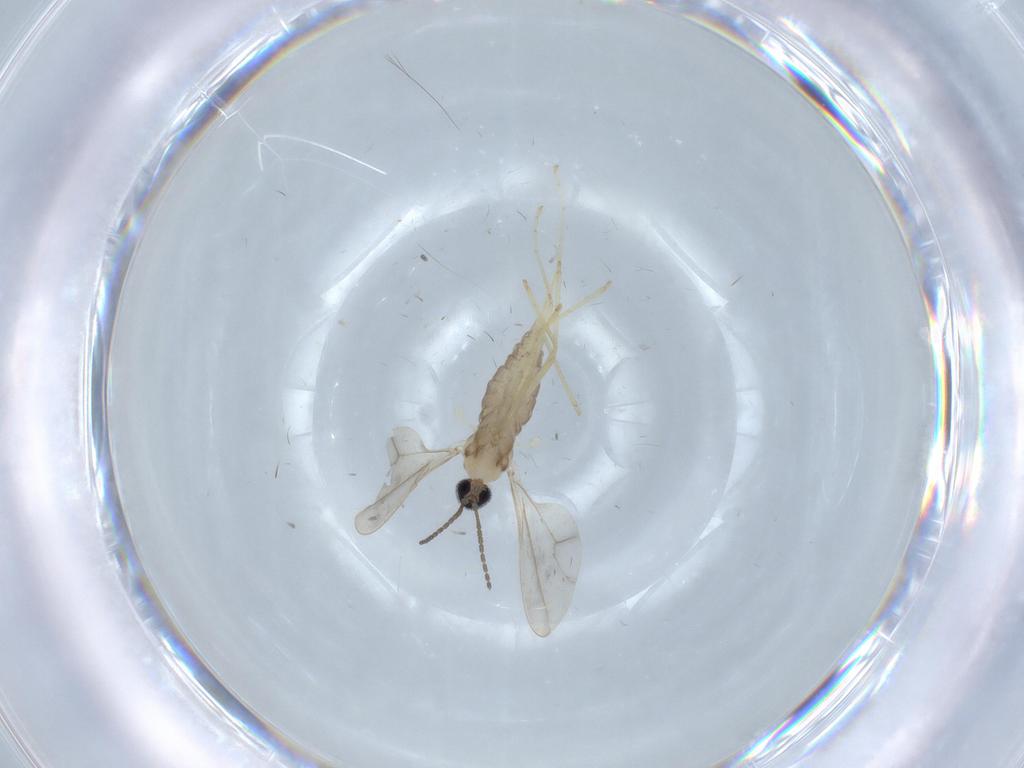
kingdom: Animalia
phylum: Arthropoda
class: Insecta
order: Diptera
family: Cecidomyiidae
